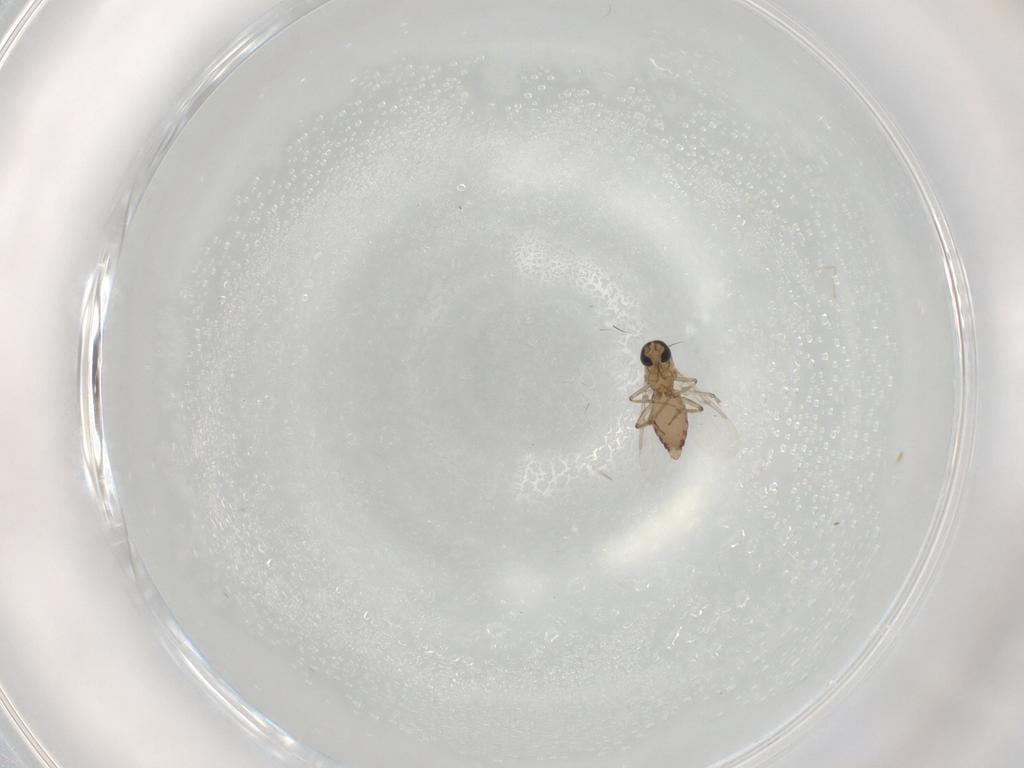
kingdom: Animalia
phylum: Arthropoda
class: Insecta
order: Diptera
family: Ceratopogonidae
